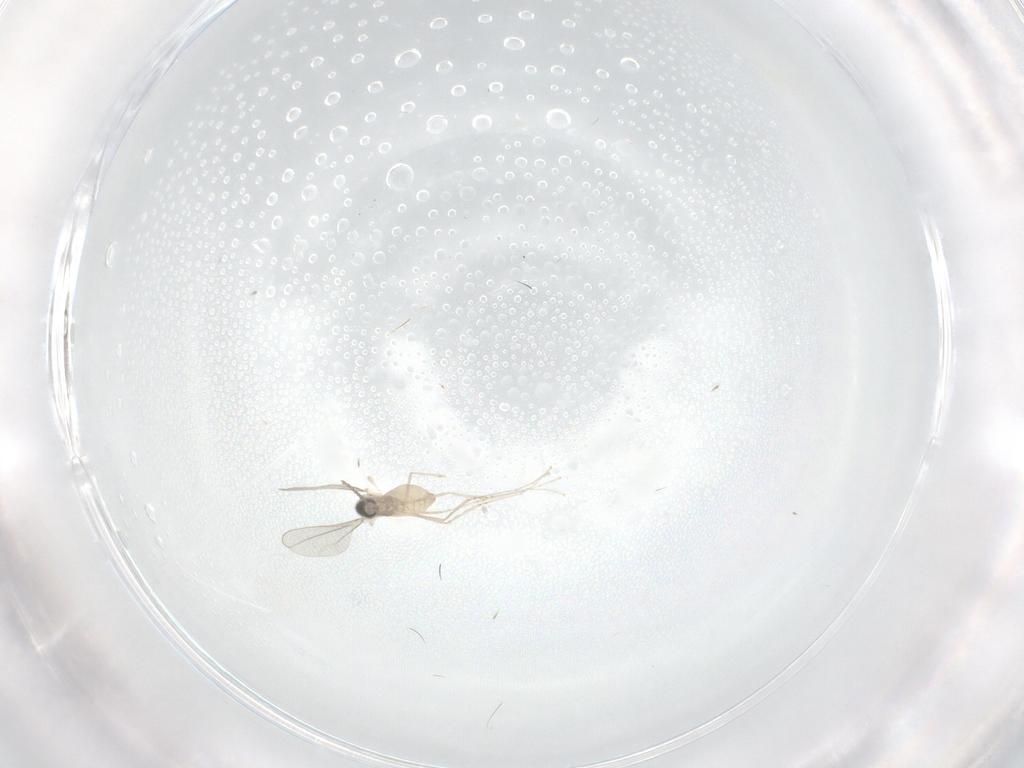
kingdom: Animalia
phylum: Arthropoda
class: Insecta
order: Diptera
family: Cecidomyiidae
